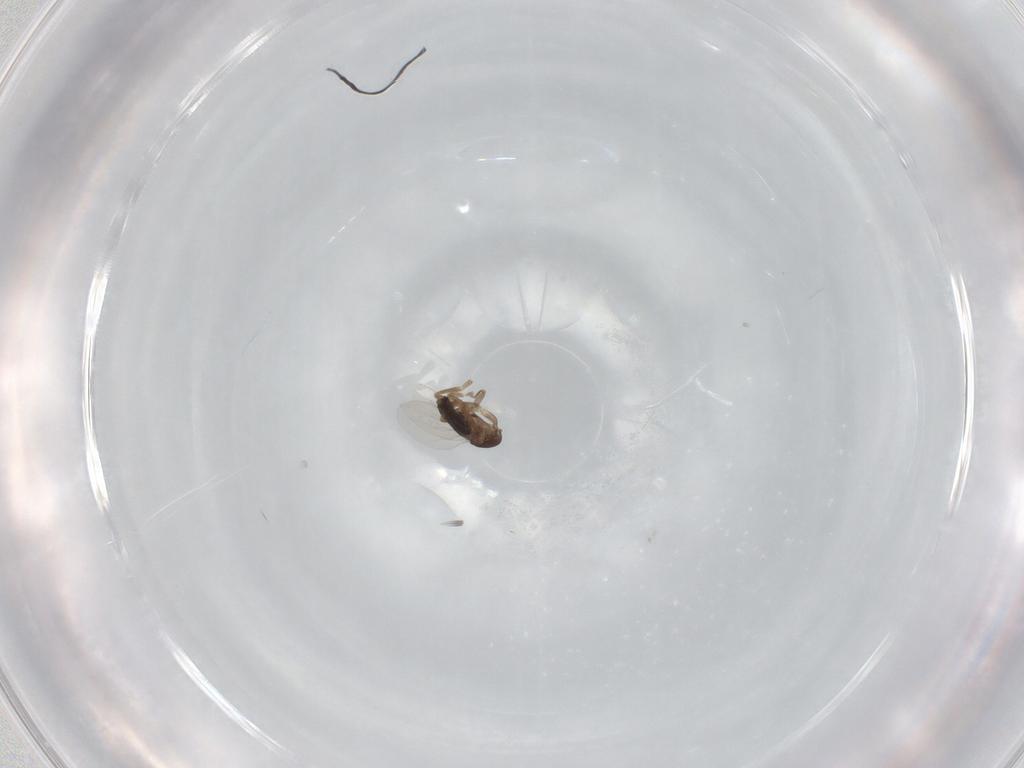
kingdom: Animalia
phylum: Arthropoda
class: Insecta
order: Diptera
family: Phoridae
